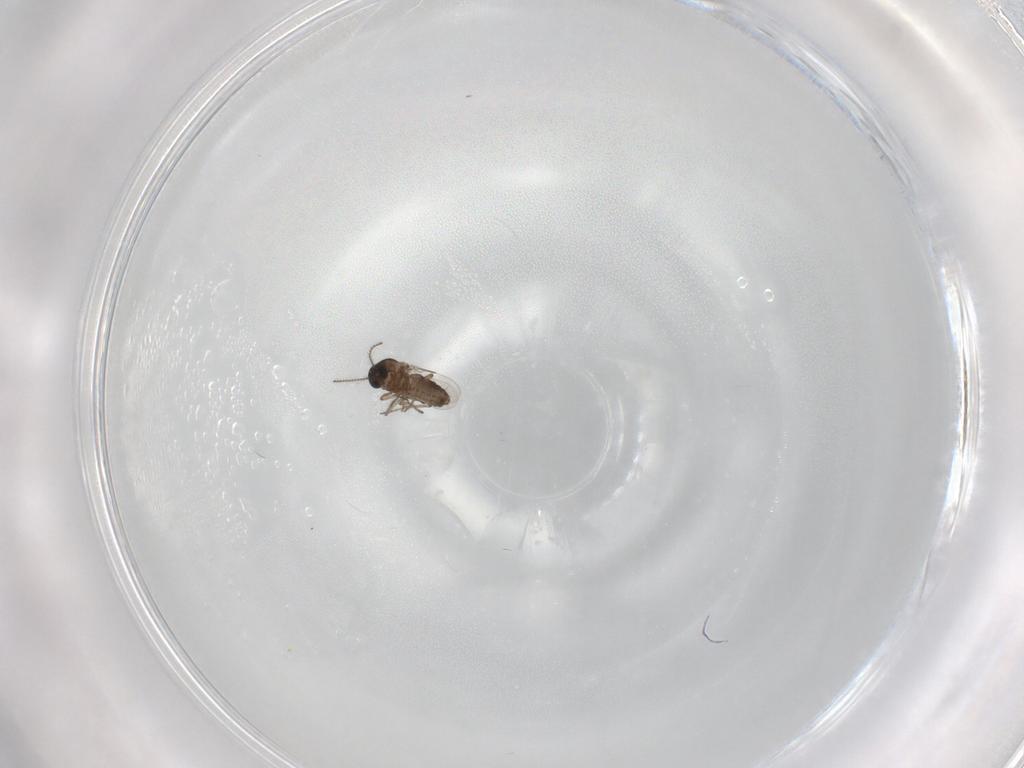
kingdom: Animalia
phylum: Arthropoda
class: Insecta
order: Diptera
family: Ceratopogonidae
